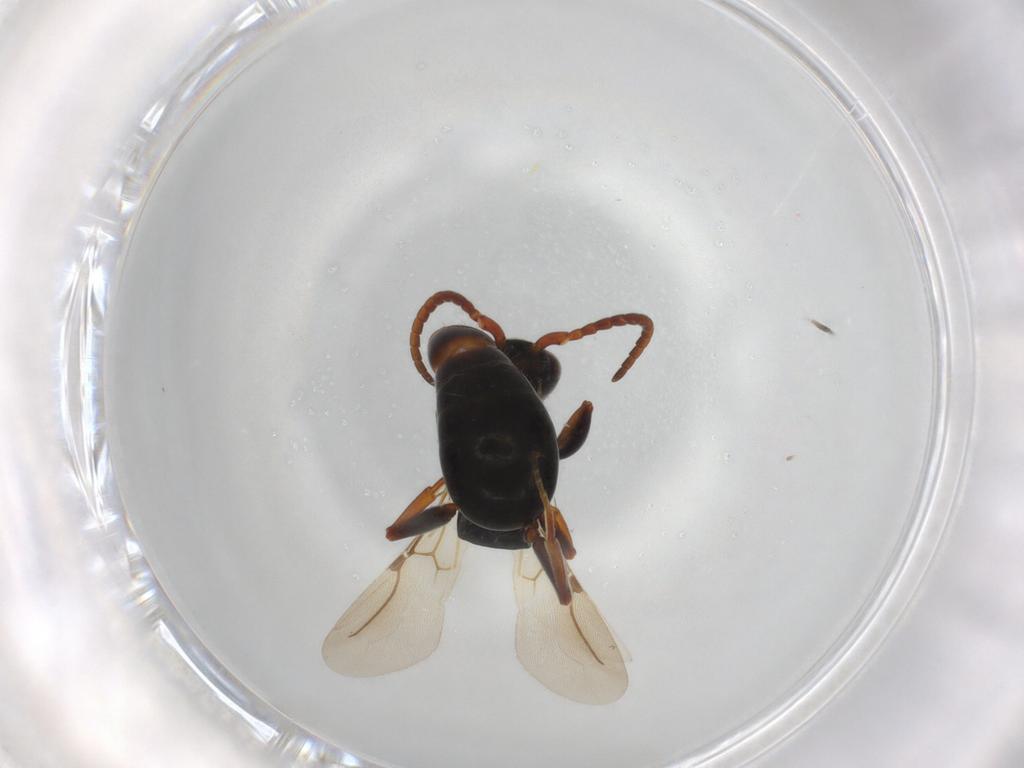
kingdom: Animalia
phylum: Arthropoda
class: Insecta
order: Hymenoptera
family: Bethylidae
